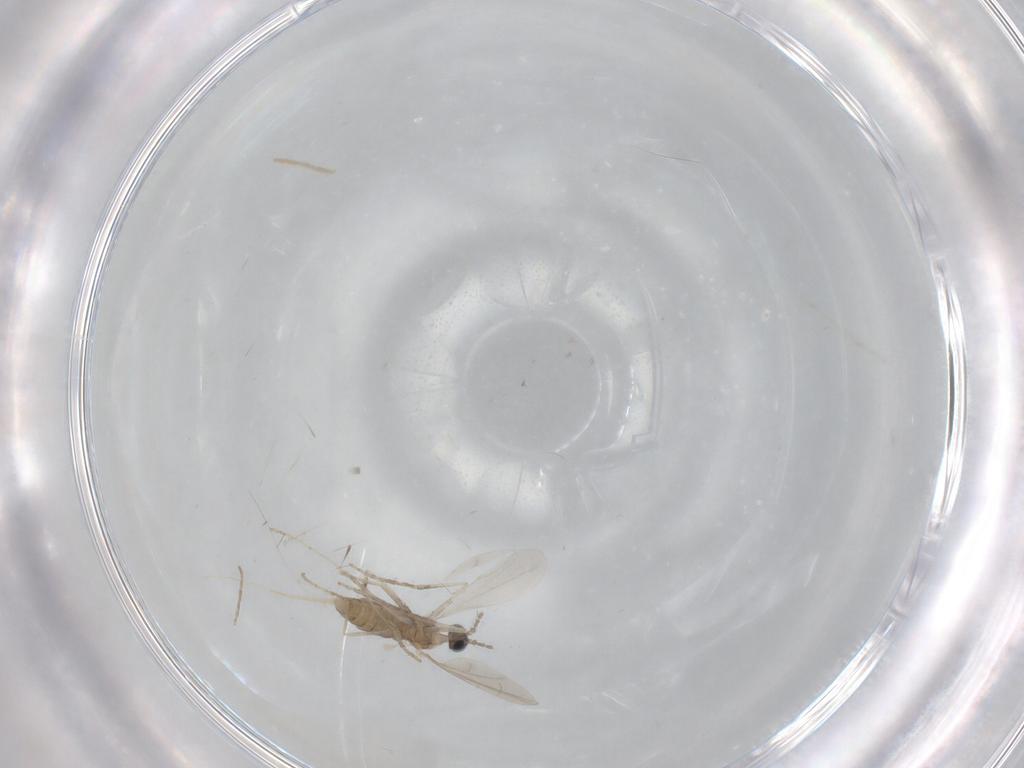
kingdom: Animalia
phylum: Arthropoda
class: Insecta
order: Diptera
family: Cecidomyiidae
